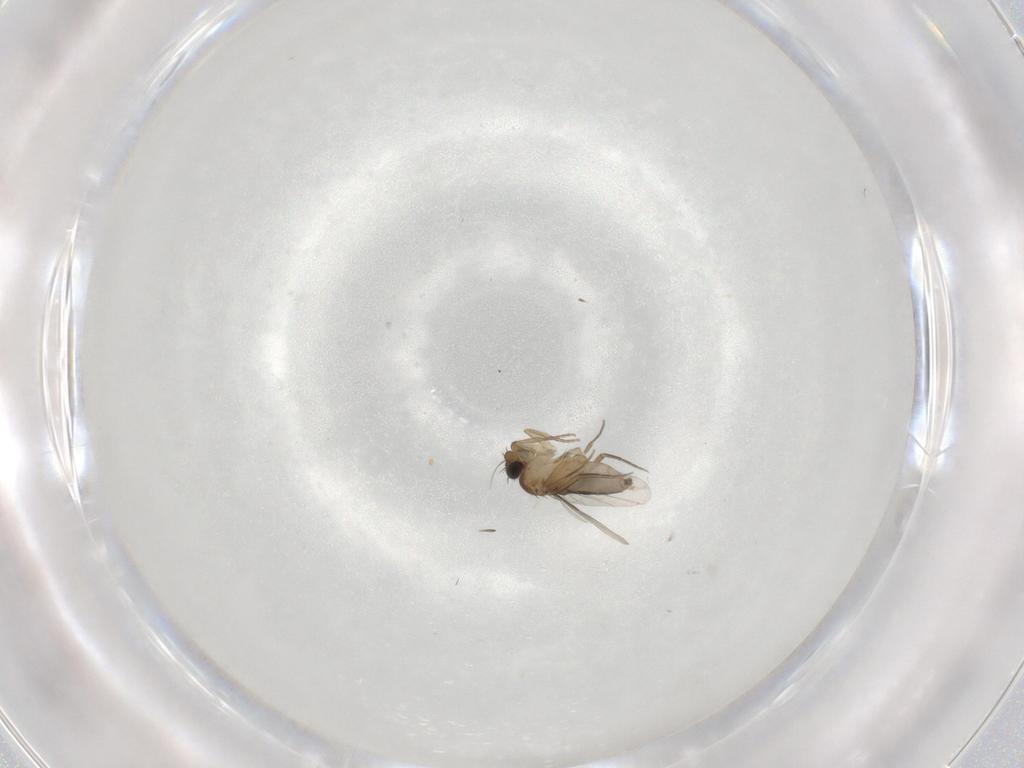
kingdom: Animalia
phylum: Arthropoda
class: Insecta
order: Diptera
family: Phoridae
